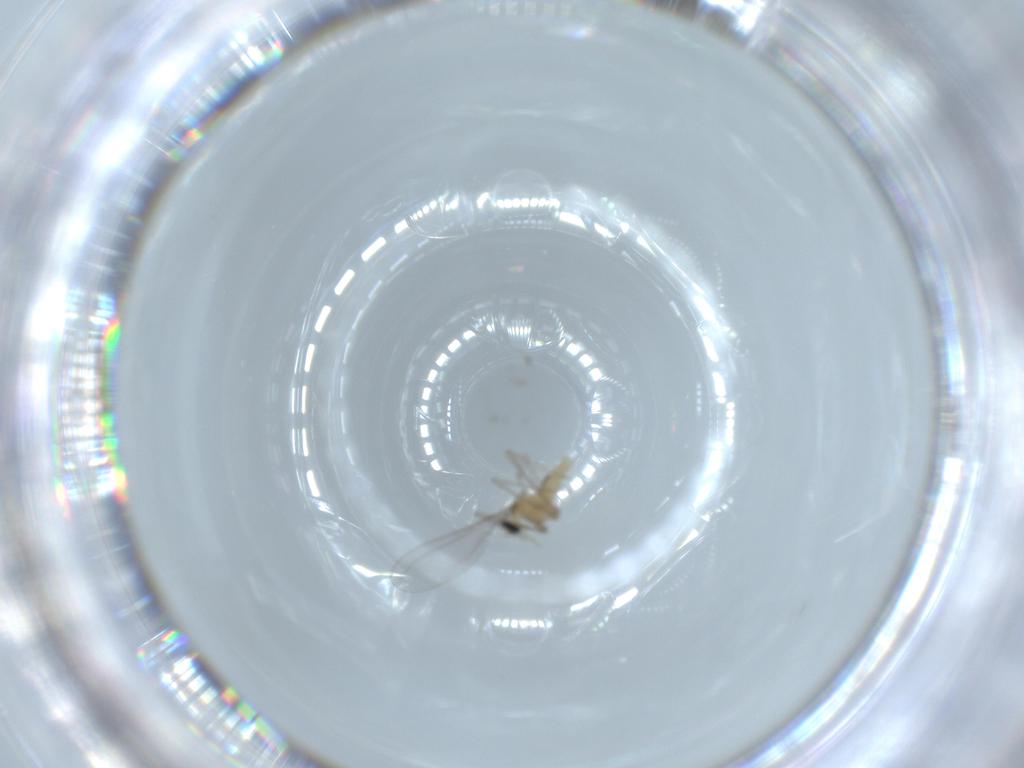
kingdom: Animalia
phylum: Arthropoda
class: Insecta
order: Diptera
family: Cecidomyiidae
